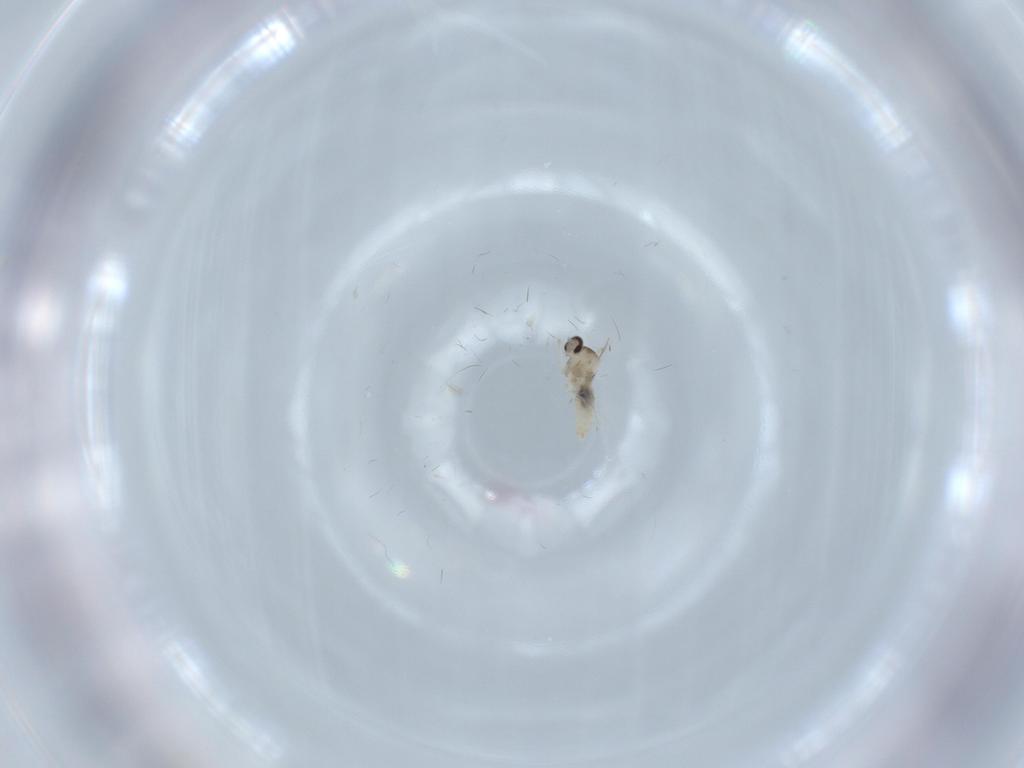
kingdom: Animalia
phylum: Arthropoda
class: Insecta
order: Diptera
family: Cecidomyiidae
